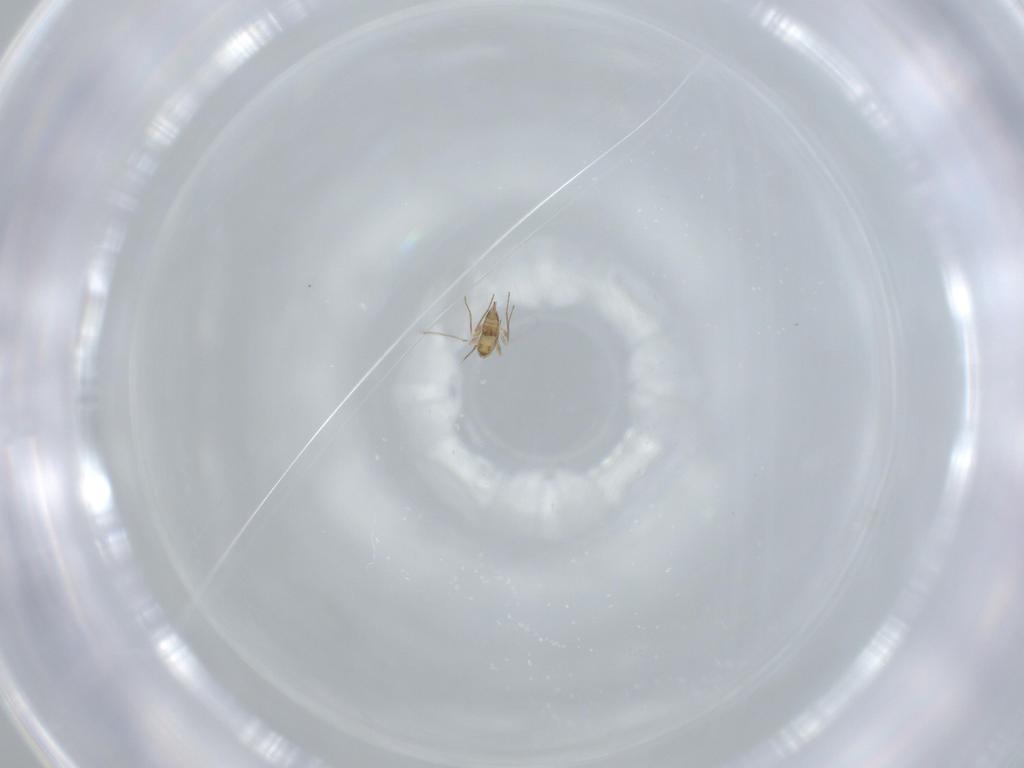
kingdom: Animalia
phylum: Arthropoda
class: Insecta
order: Hymenoptera
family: Mymaridae
